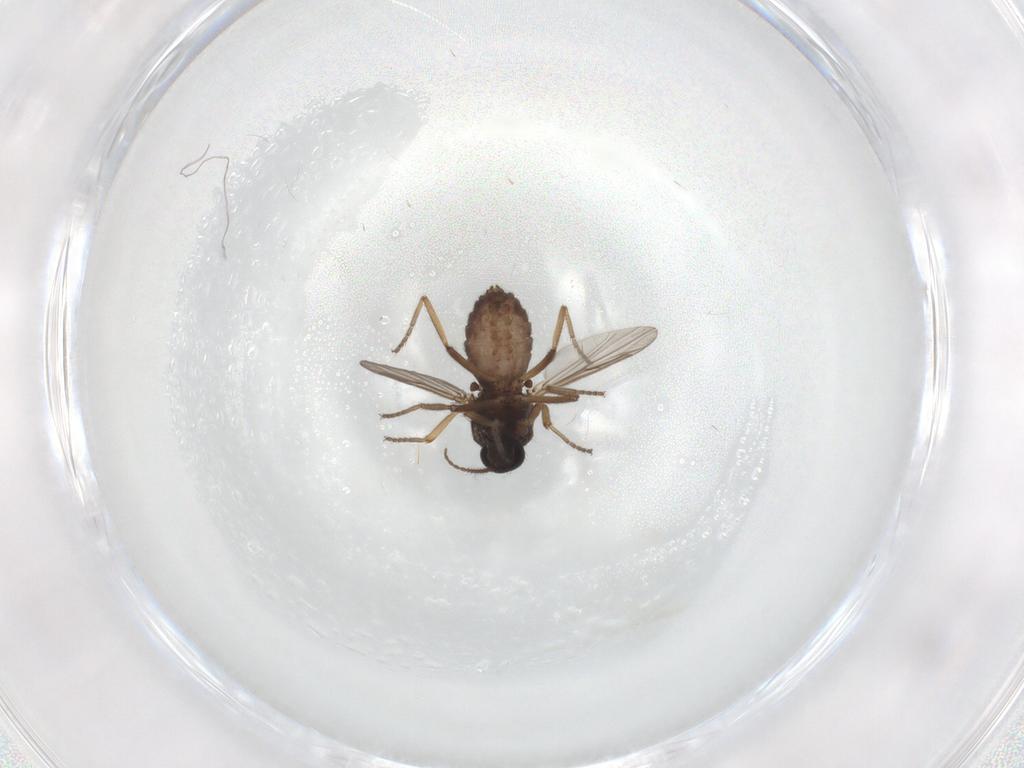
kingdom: Animalia
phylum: Arthropoda
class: Insecta
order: Diptera
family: Ceratopogonidae
